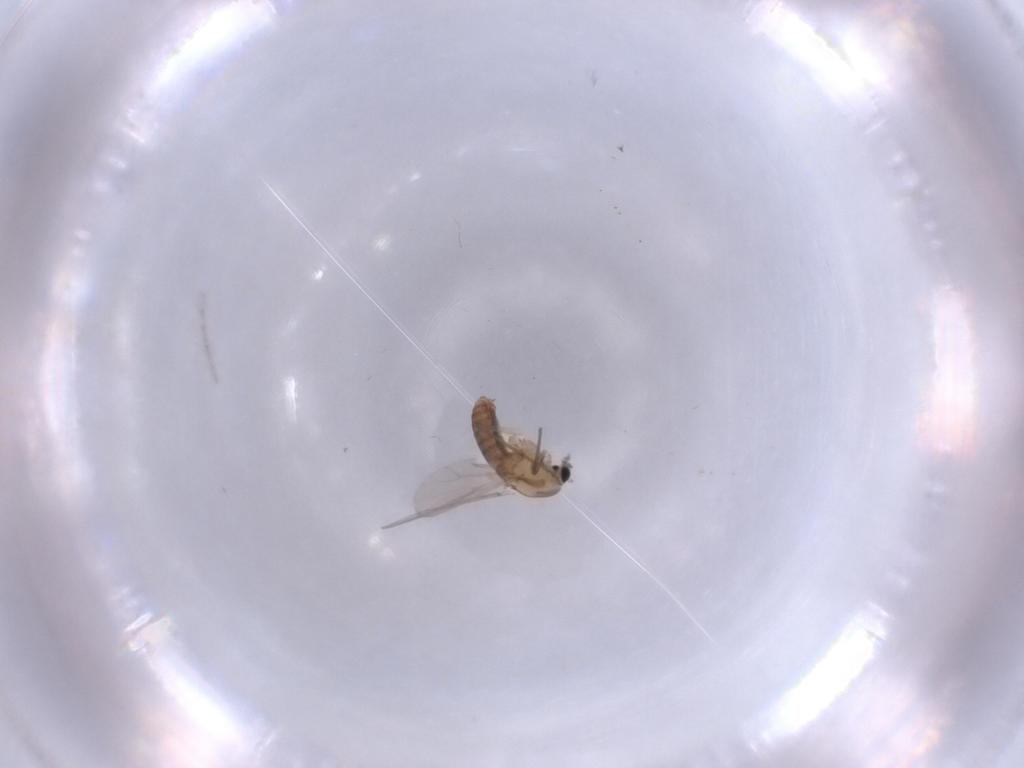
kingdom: Animalia
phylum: Arthropoda
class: Insecta
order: Diptera
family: Chironomidae
